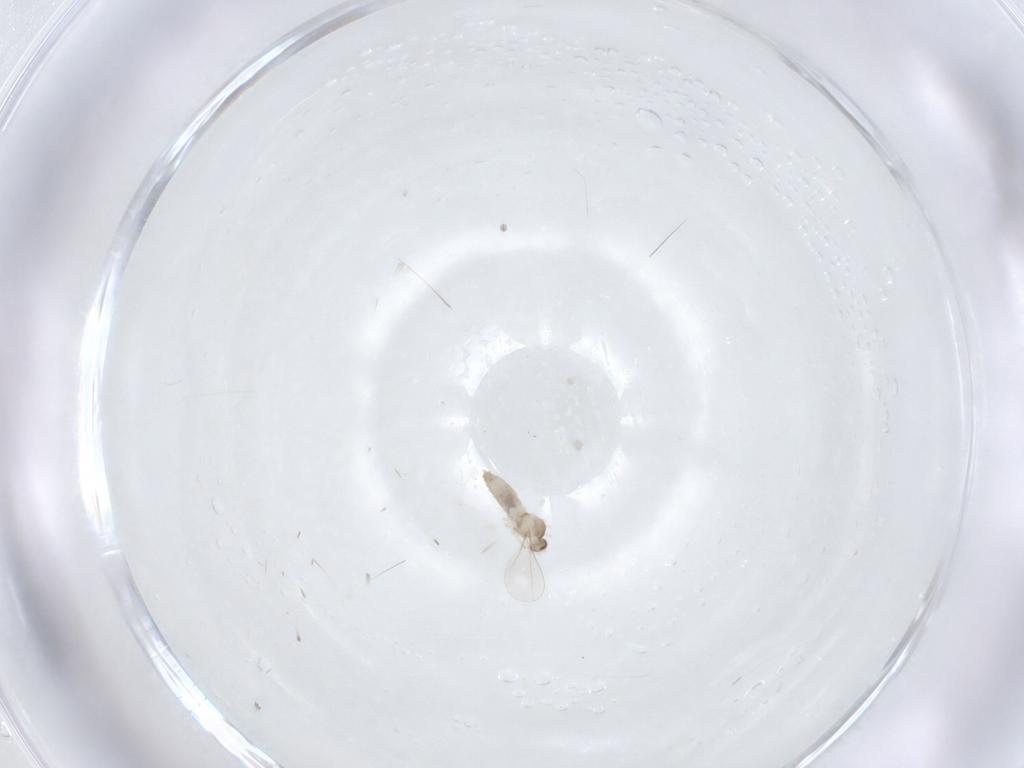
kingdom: Animalia
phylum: Arthropoda
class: Insecta
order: Diptera
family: Cecidomyiidae
